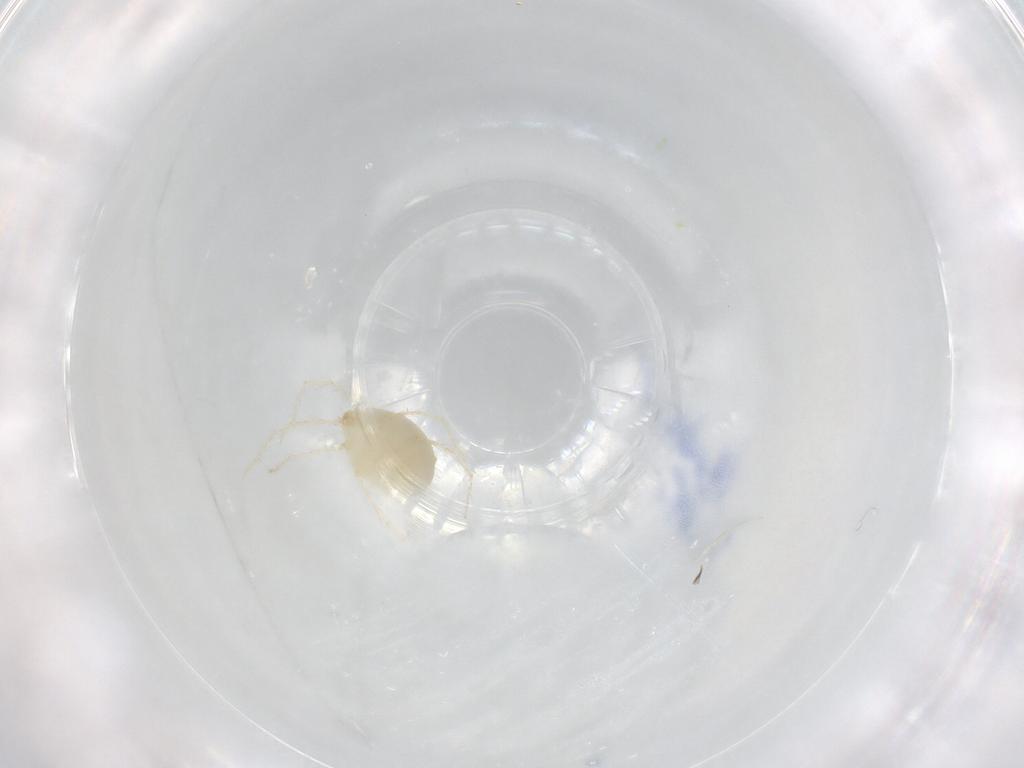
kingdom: Animalia
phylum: Arthropoda
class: Arachnida
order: Trombidiformes
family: Erythraeidae
